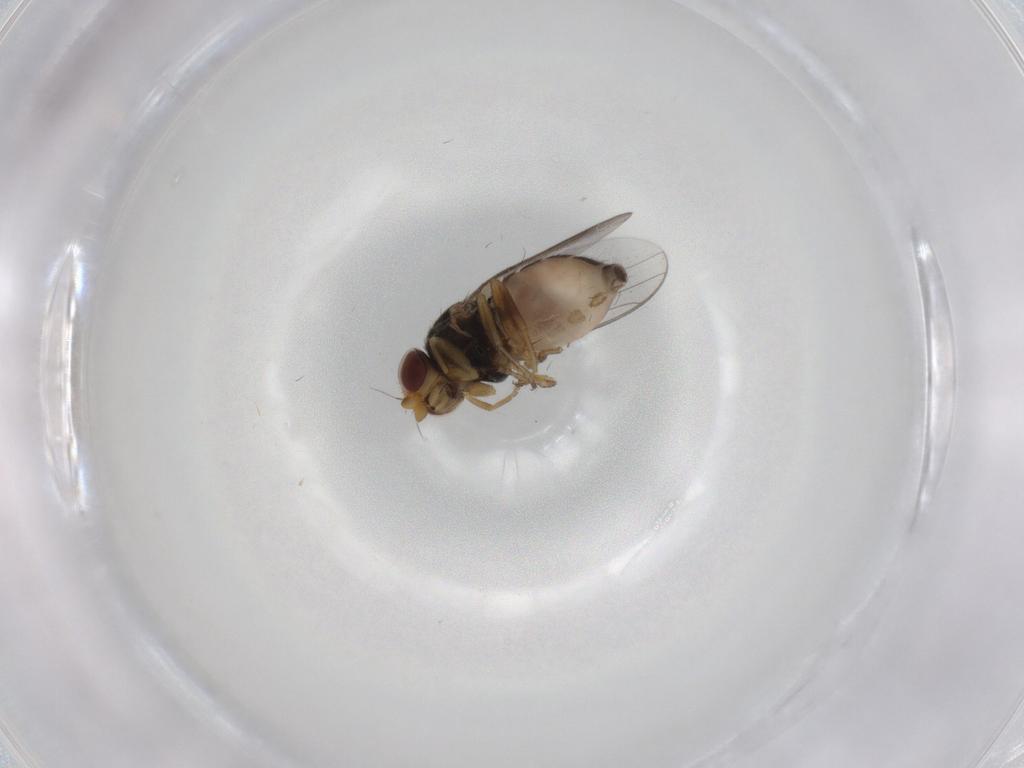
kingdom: Animalia
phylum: Arthropoda
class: Insecta
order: Diptera
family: Chloropidae
